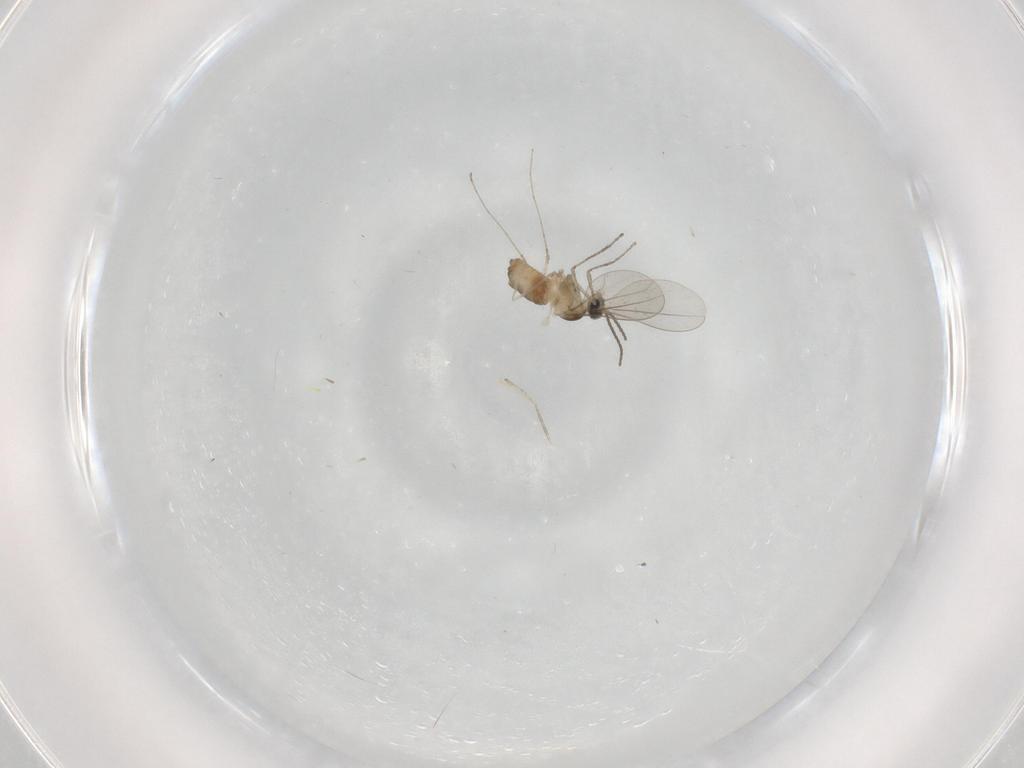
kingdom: Animalia
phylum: Arthropoda
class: Insecta
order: Diptera
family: Cecidomyiidae
